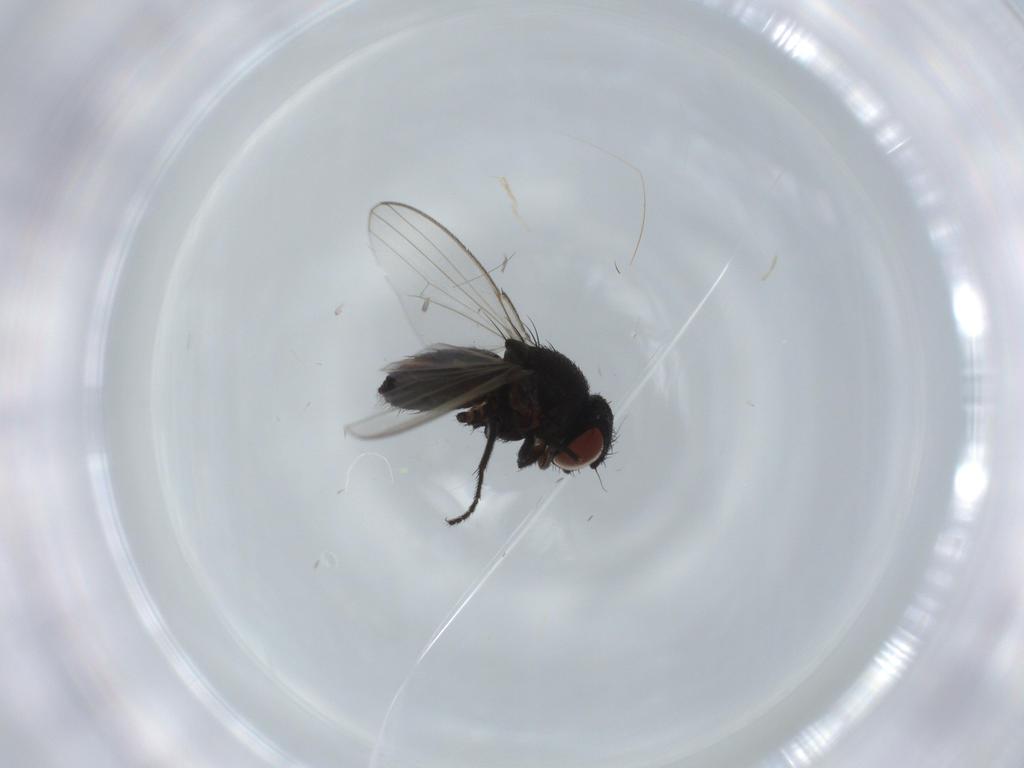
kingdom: Animalia
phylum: Arthropoda
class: Insecta
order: Diptera
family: Milichiidae
